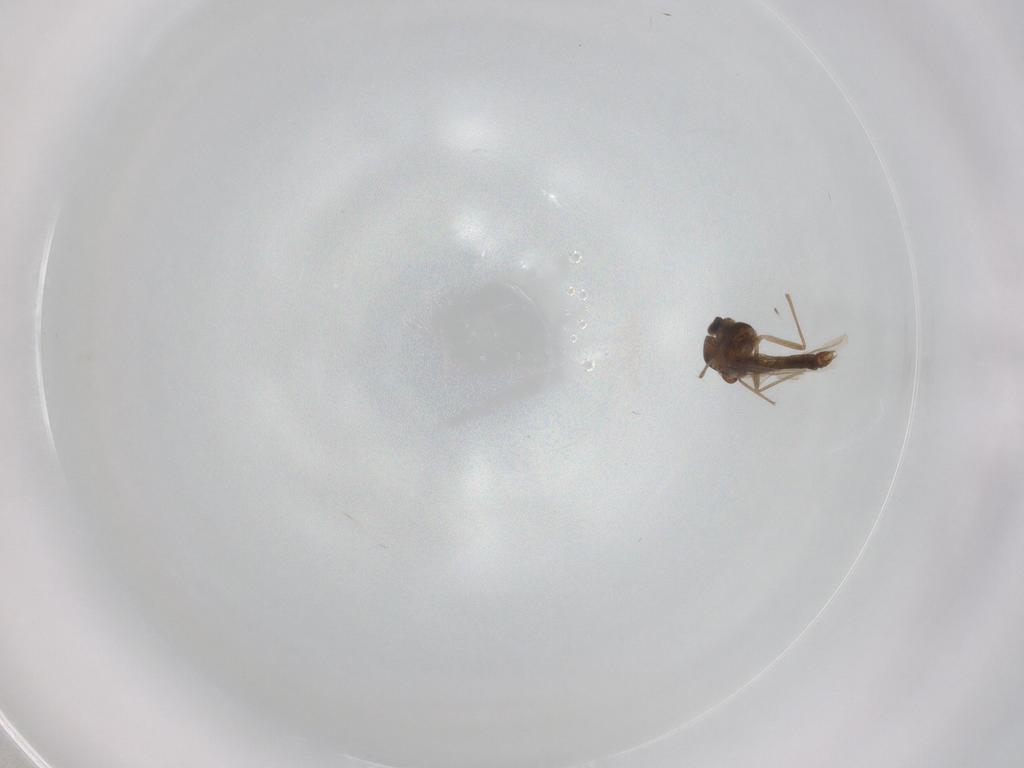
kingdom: Animalia
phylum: Arthropoda
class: Insecta
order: Diptera
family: Chironomidae
